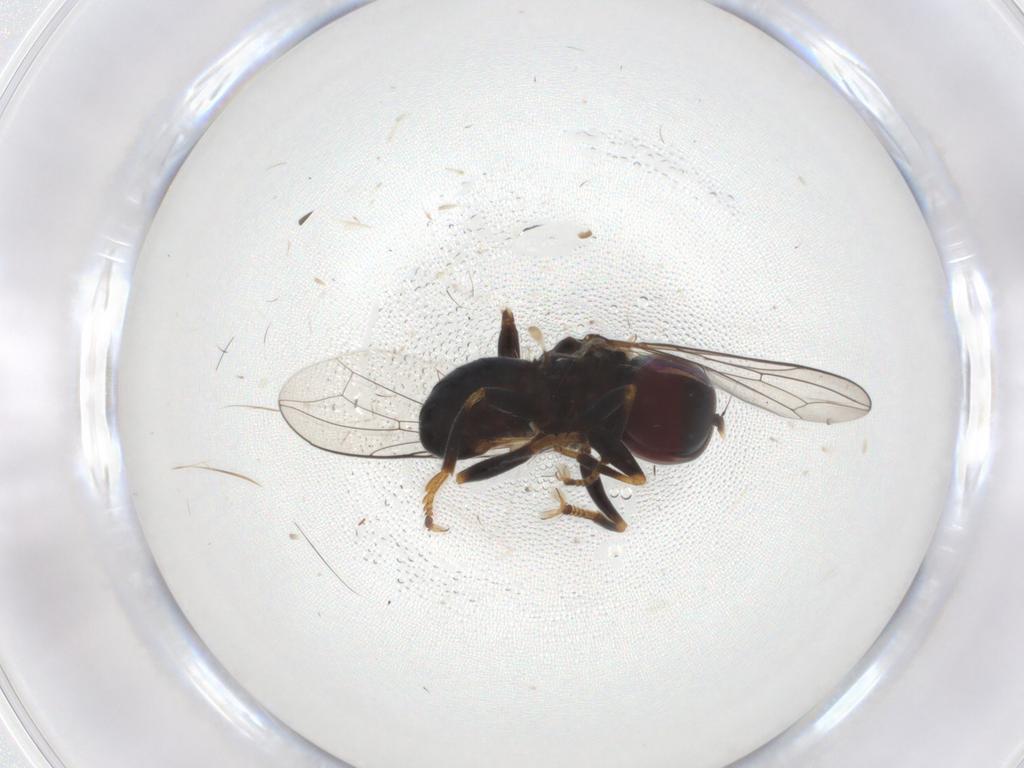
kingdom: Animalia
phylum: Arthropoda
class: Insecta
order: Diptera
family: Pipunculidae
